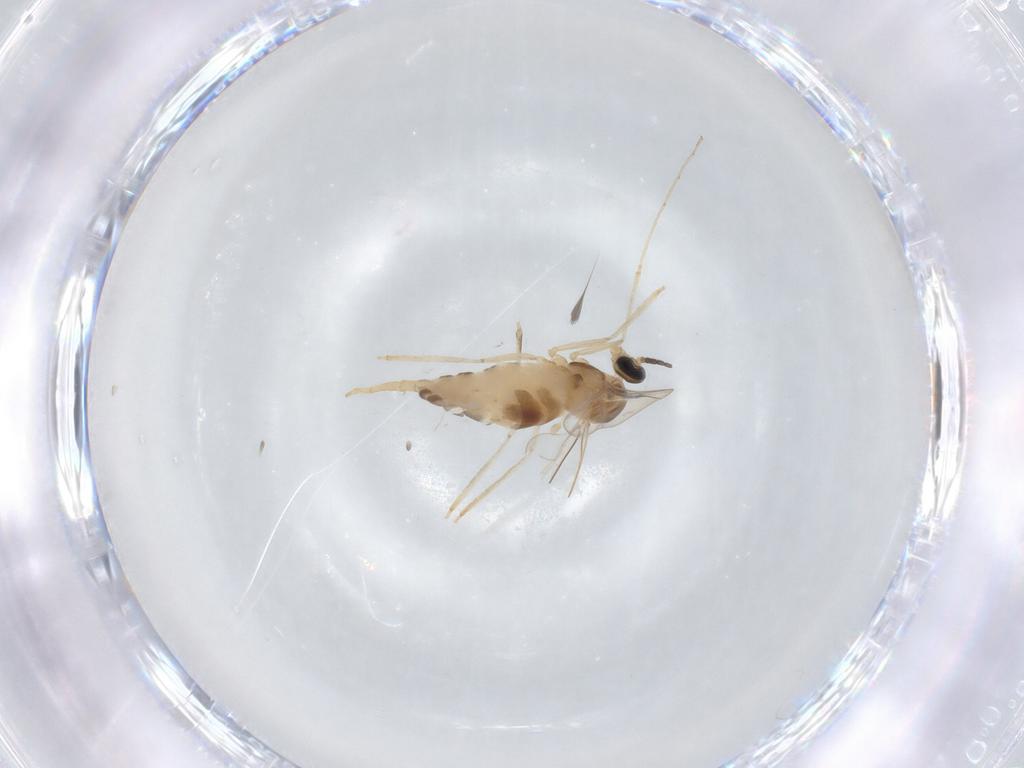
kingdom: Animalia
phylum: Arthropoda
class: Insecta
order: Diptera
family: Cecidomyiidae
